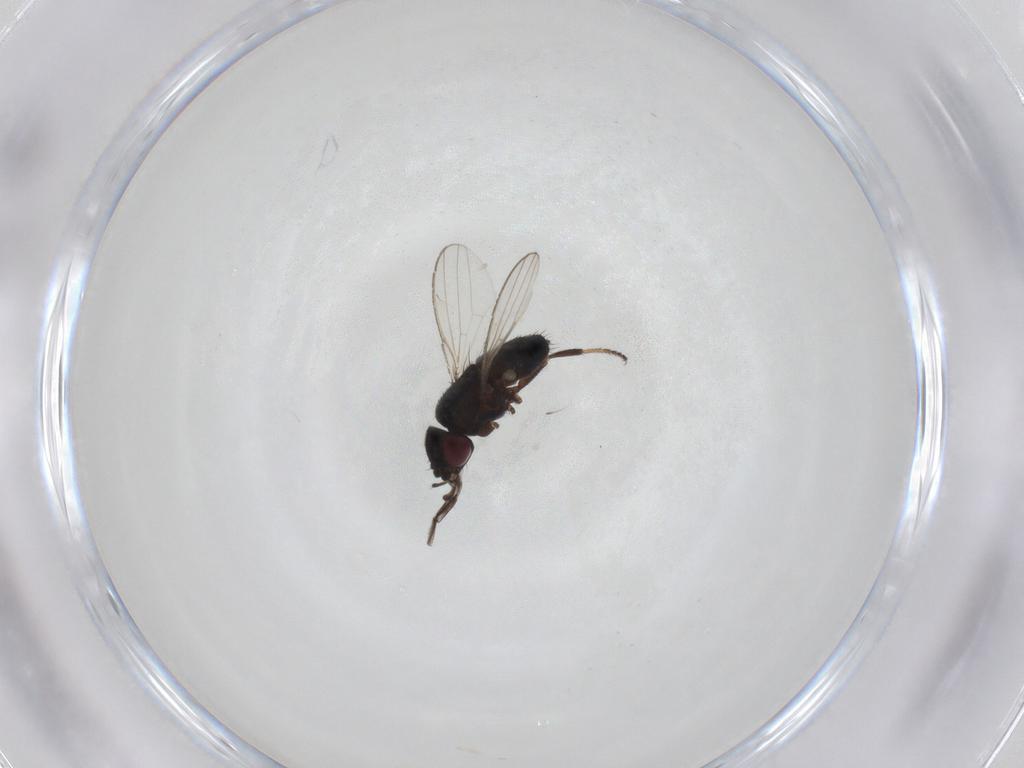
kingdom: Animalia
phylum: Arthropoda
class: Insecta
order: Diptera
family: Milichiidae
